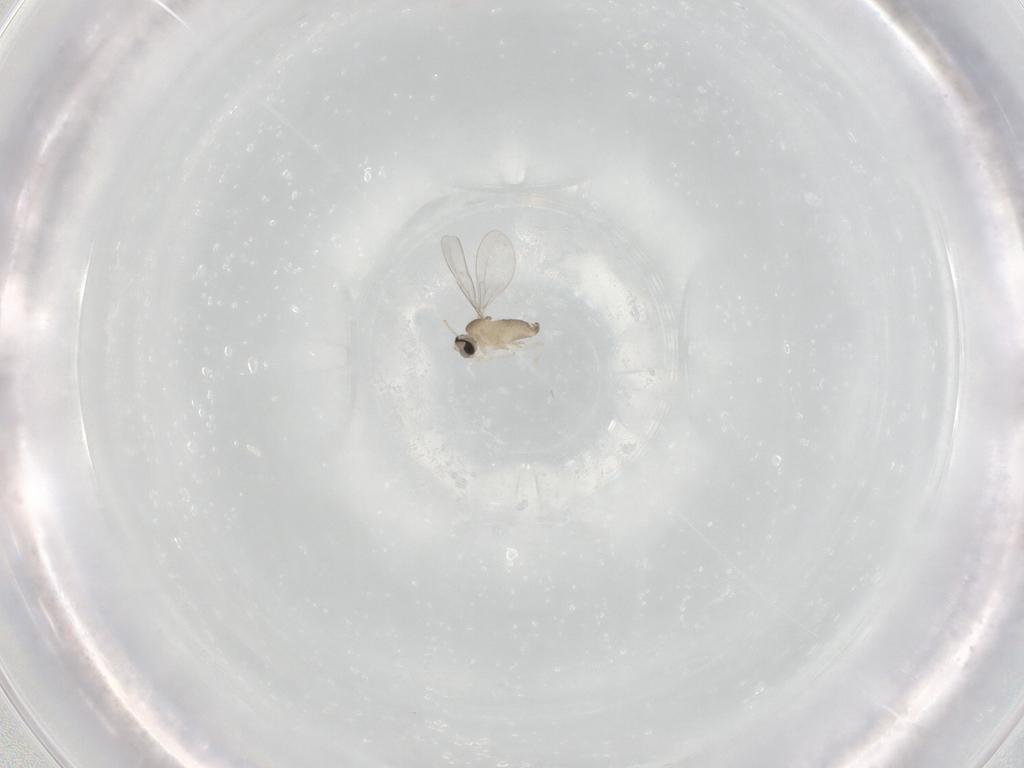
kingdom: Animalia
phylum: Arthropoda
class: Insecta
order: Diptera
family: Cecidomyiidae
